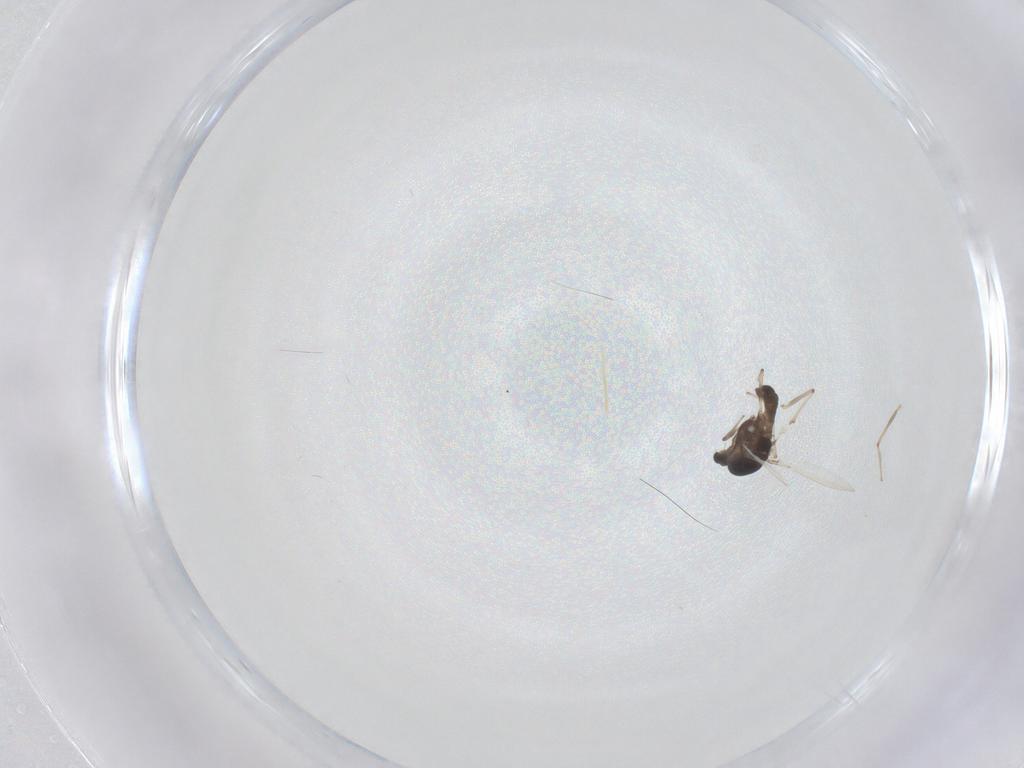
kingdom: Animalia
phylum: Arthropoda
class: Insecta
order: Diptera
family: Chironomidae
